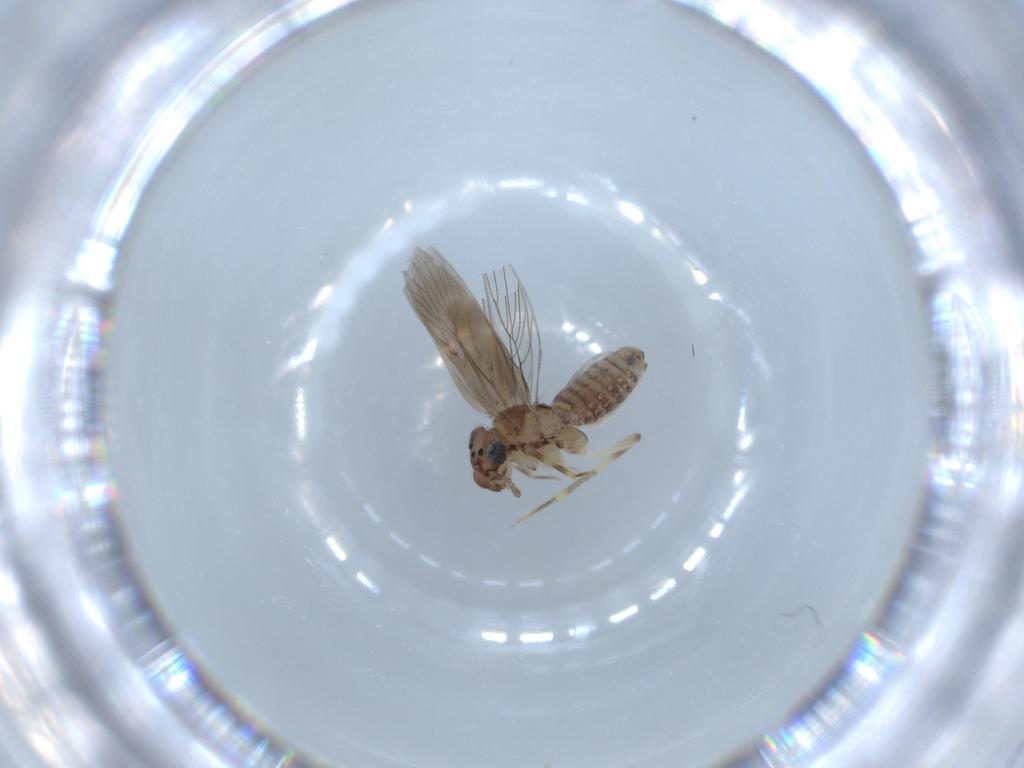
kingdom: Animalia
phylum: Arthropoda
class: Insecta
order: Psocodea
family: Lepidopsocidae
